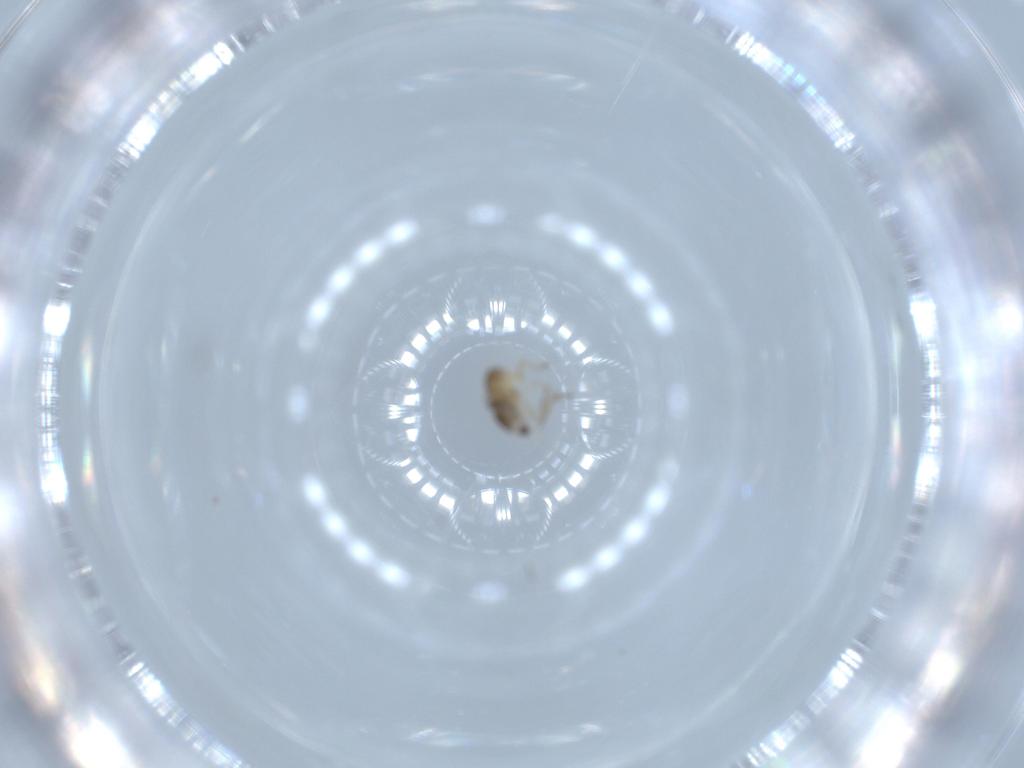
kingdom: Animalia
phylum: Arthropoda
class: Insecta
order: Diptera
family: Phoridae
